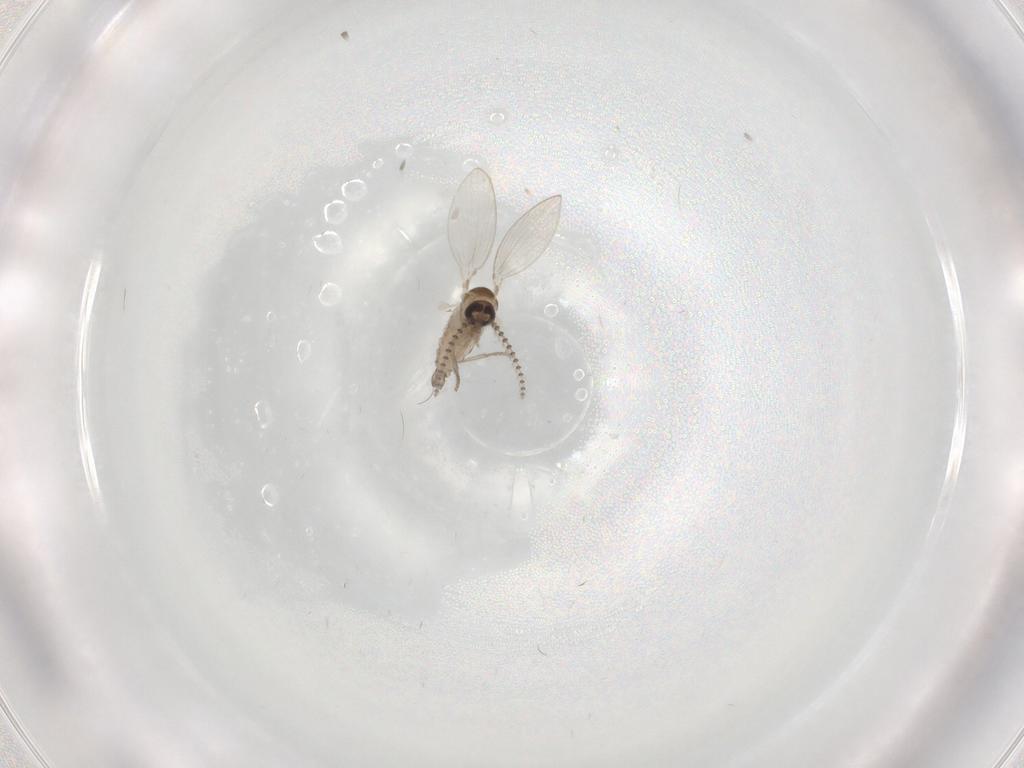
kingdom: Animalia
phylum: Arthropoda
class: Insecta
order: Diptera
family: Psychodidae
